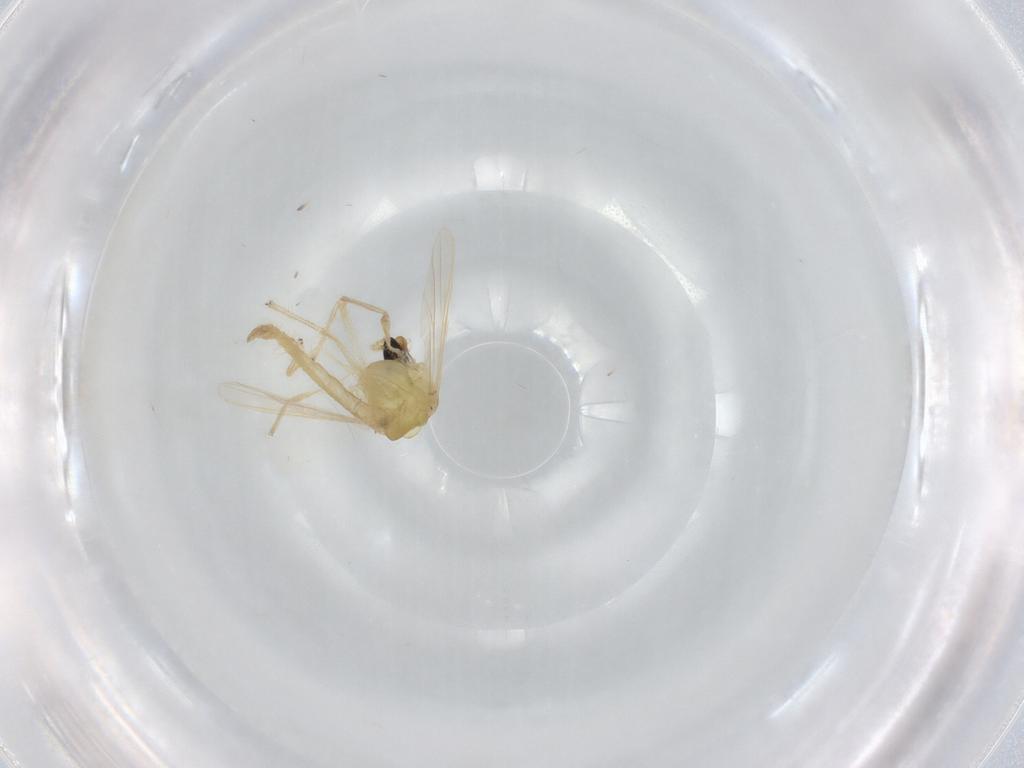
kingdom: Animalia
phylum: Arthropoda
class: Insecta
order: Diptera
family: Chironomidae
